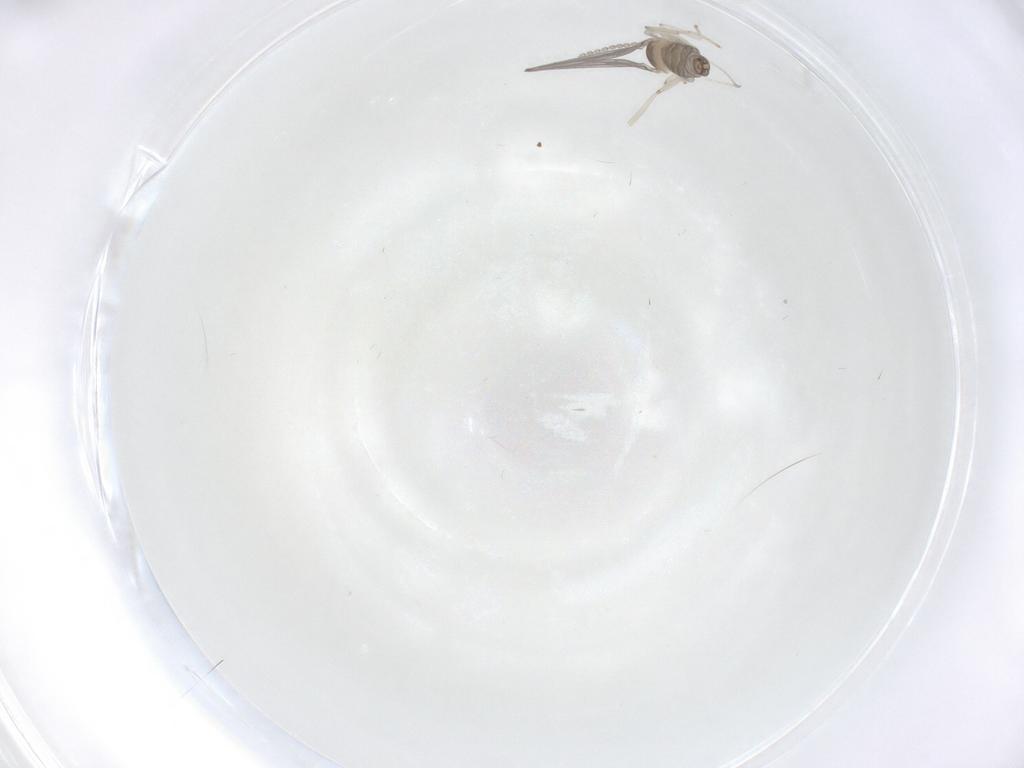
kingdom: Animalia
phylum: Arthropoda
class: Insecta
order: Diptera
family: Cecidomyiidae
